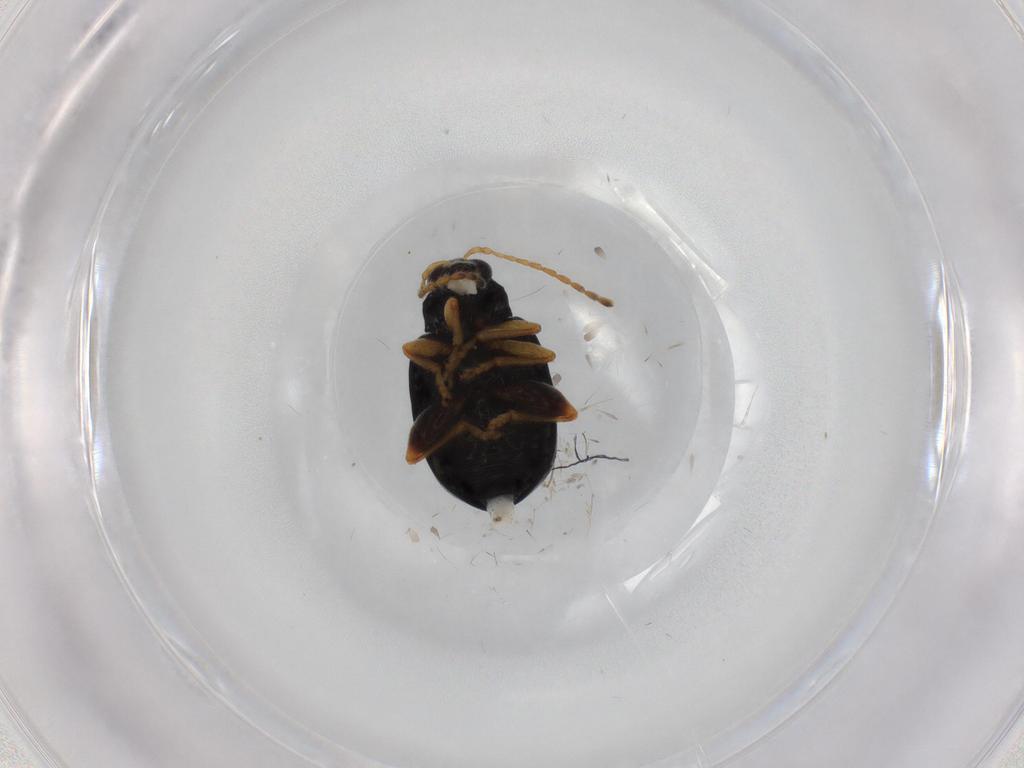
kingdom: Animalia
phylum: Arthropoda
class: Insecta
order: Coleoptera
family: Chrysomelidae
